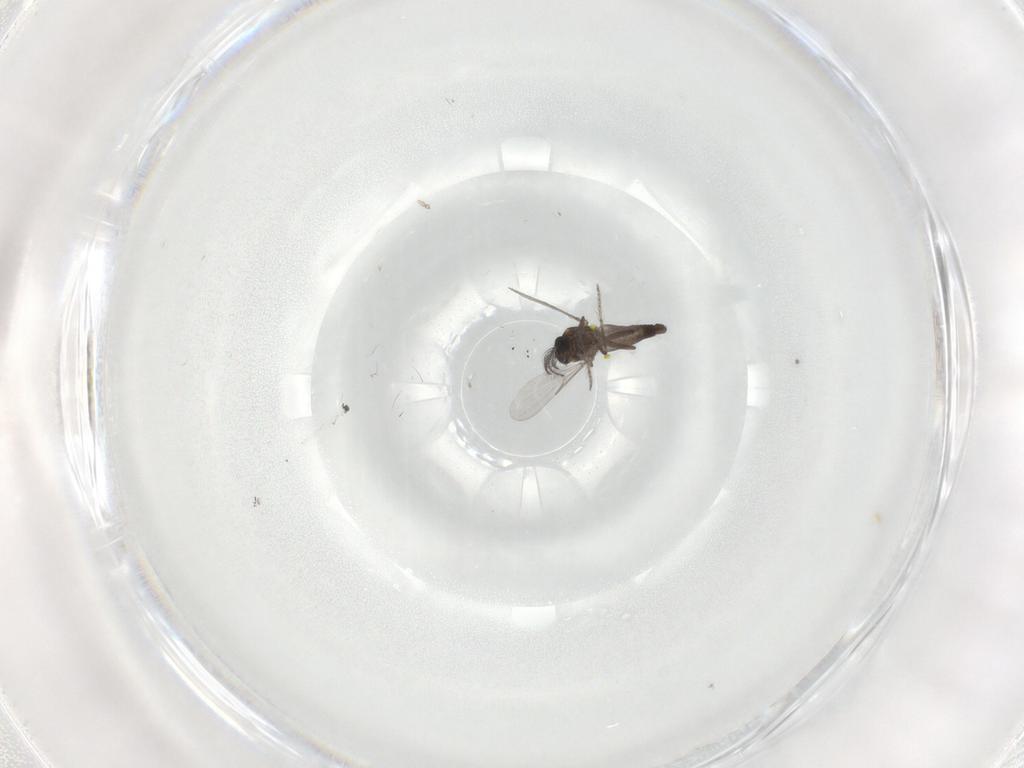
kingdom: Animalia
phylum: Arthropoda
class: Insecta
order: Diptera
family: Ceratopogonidae
